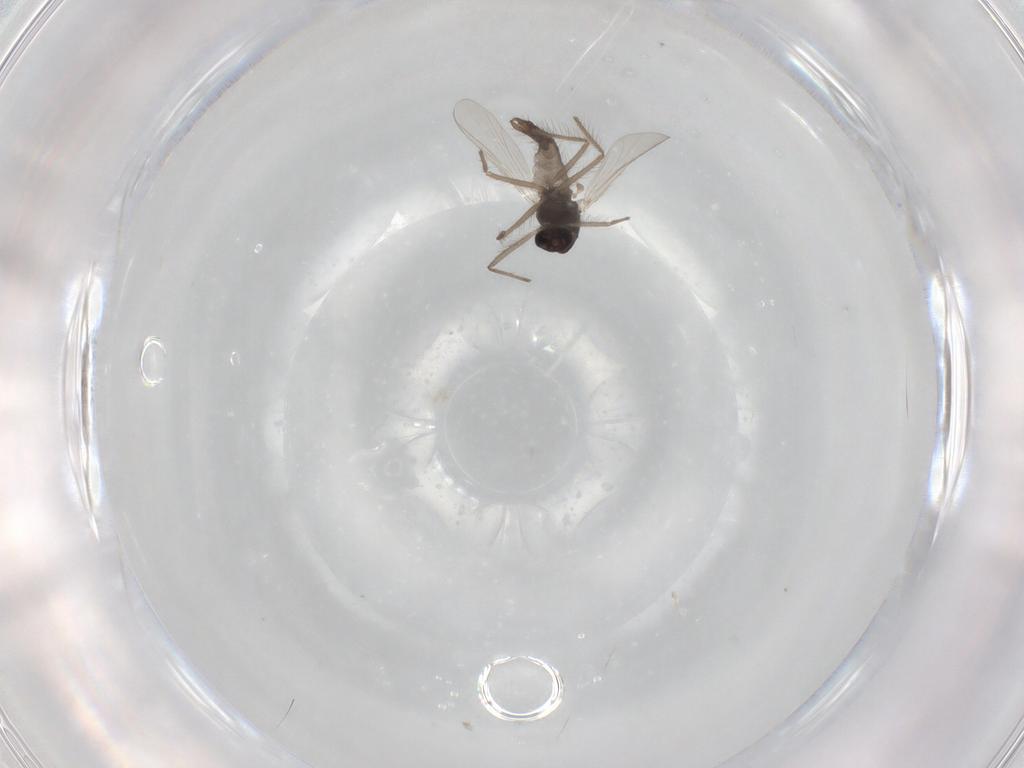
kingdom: Animalia
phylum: Arthropoda
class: Insecta
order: Diptera
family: Chironomidae
